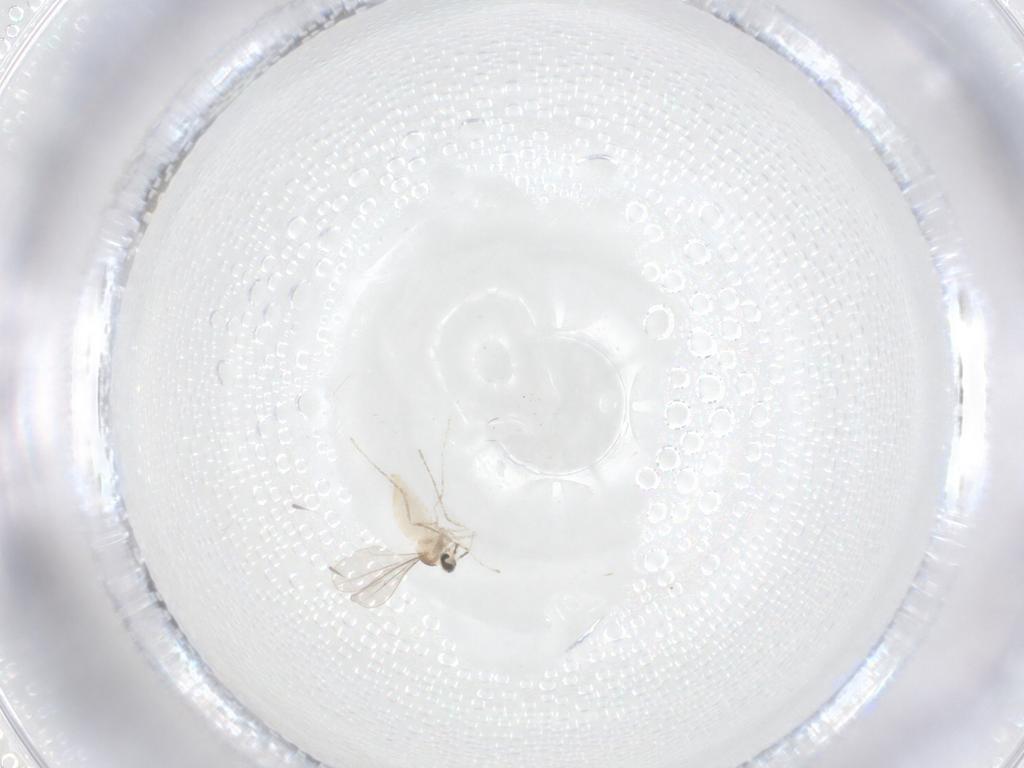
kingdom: Animalia
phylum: Arthropoda
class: Insecta
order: Diptera
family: Cecidomyiidae
